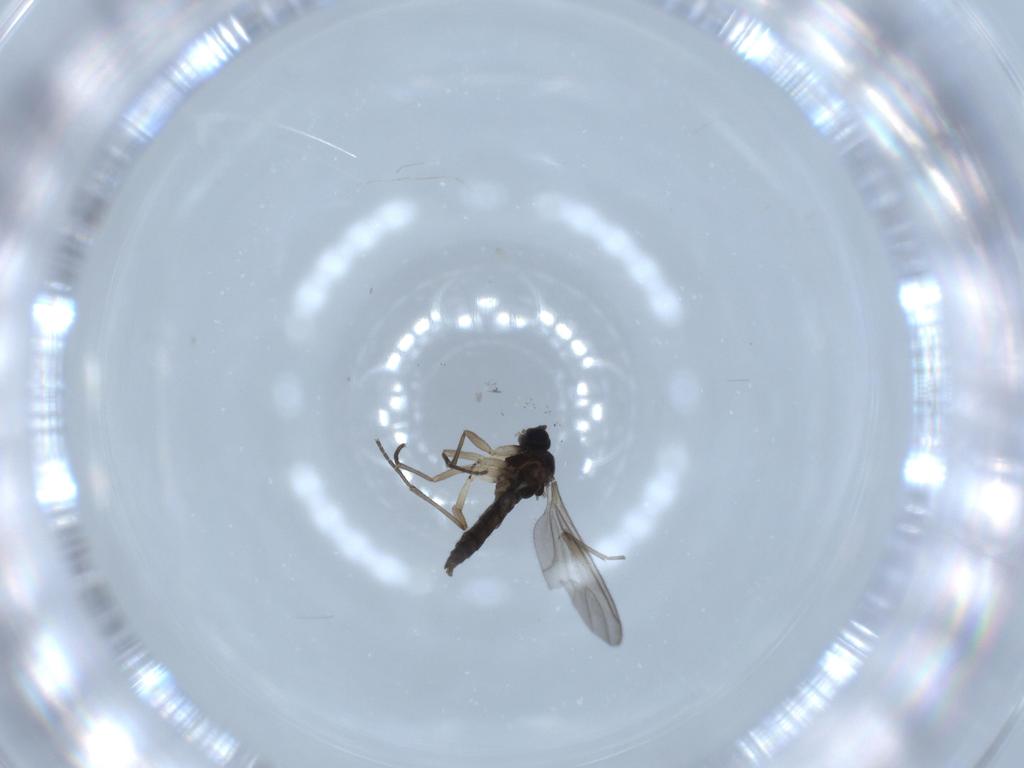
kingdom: Animalia
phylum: Arthropoda
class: Insecta
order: Diptera
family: Sciaridae
